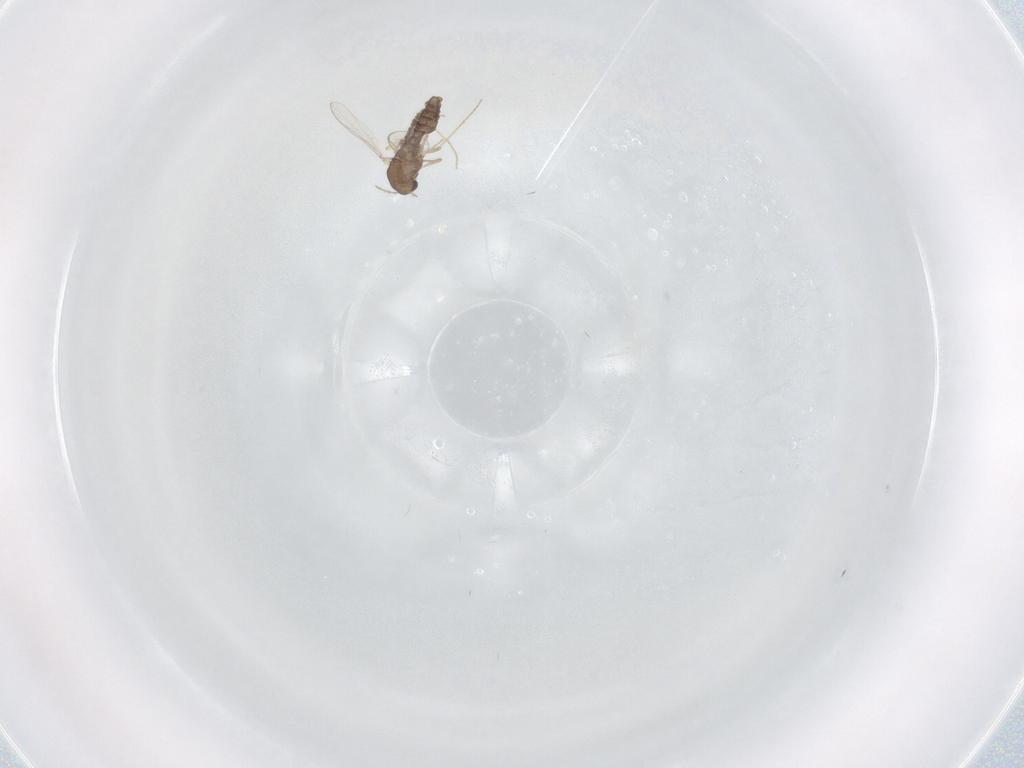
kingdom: Animalia
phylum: Arthropoda
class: Insecta
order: Diptera
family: Chironomidae
